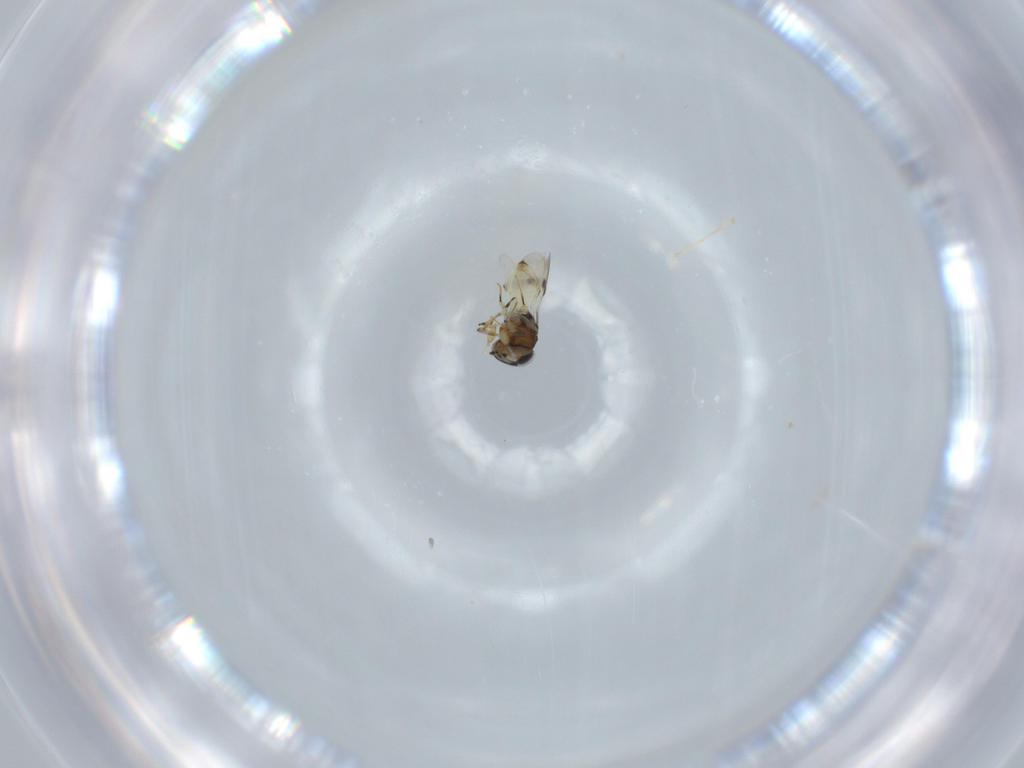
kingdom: Animalia
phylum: Arthropoda
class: Insecta
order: Hymenoptera
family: Scelionidae
